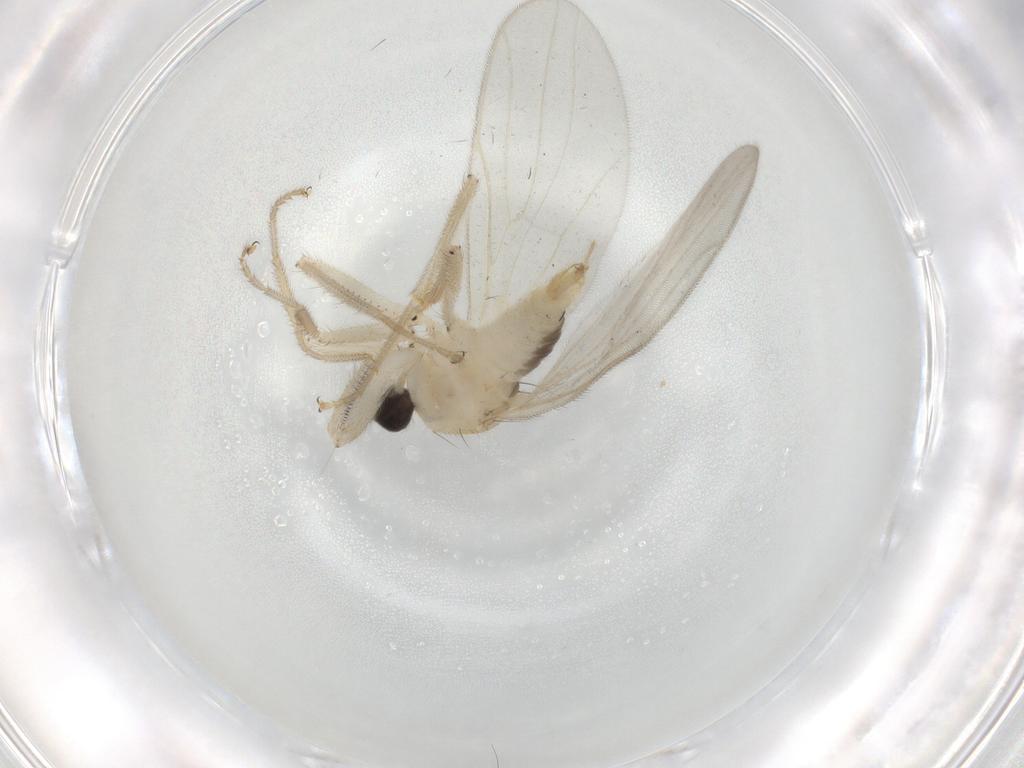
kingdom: Animalia
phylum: Arthropoda
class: Insecta
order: Diptera
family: Hybotidae
